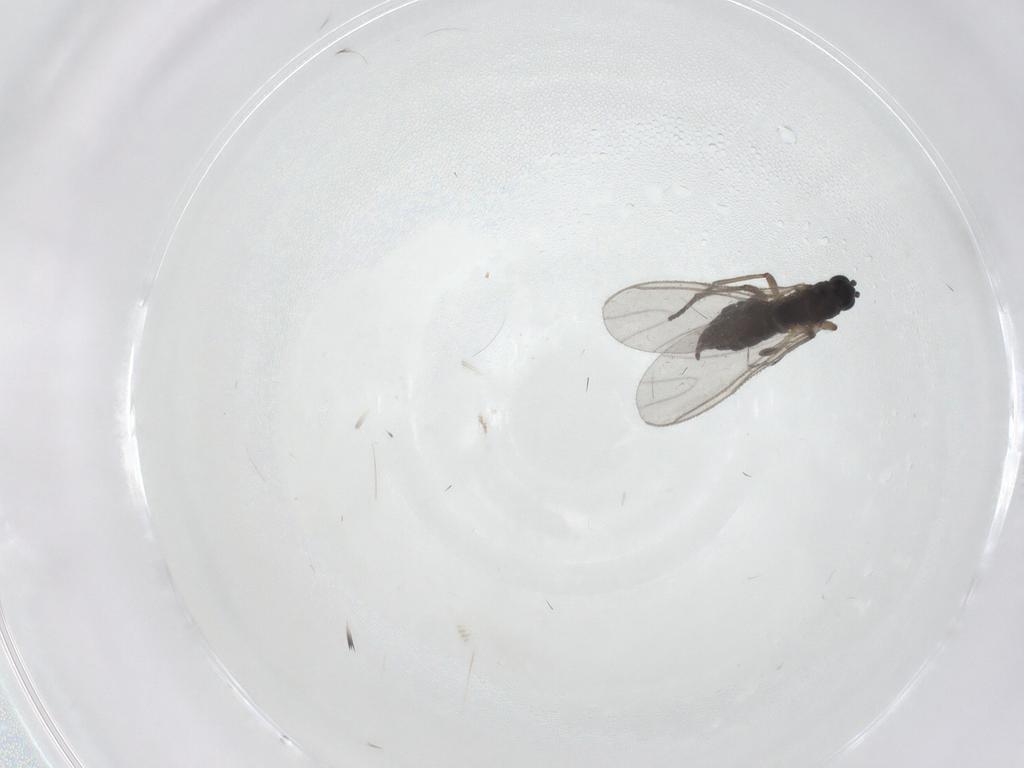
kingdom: Animalia
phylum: Arthropoda
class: Insecta
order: Diptera
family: Chironomidae
